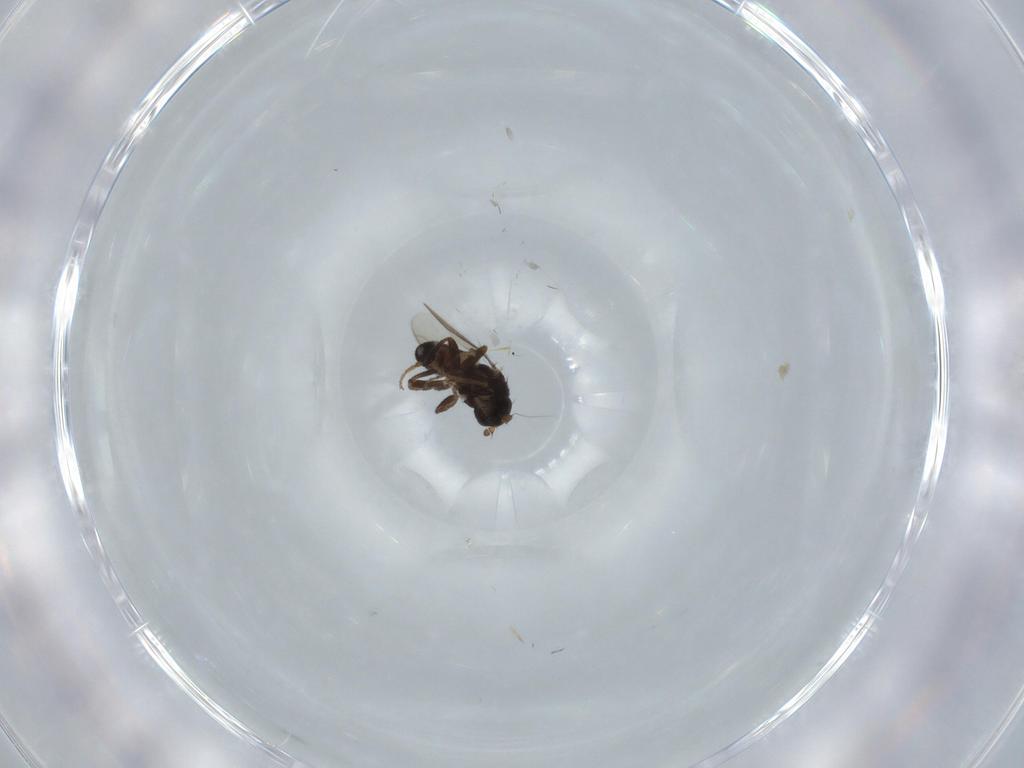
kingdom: Animalia
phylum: Arthropoda
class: Insecta
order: Diptera
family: Sphaeroceridae
